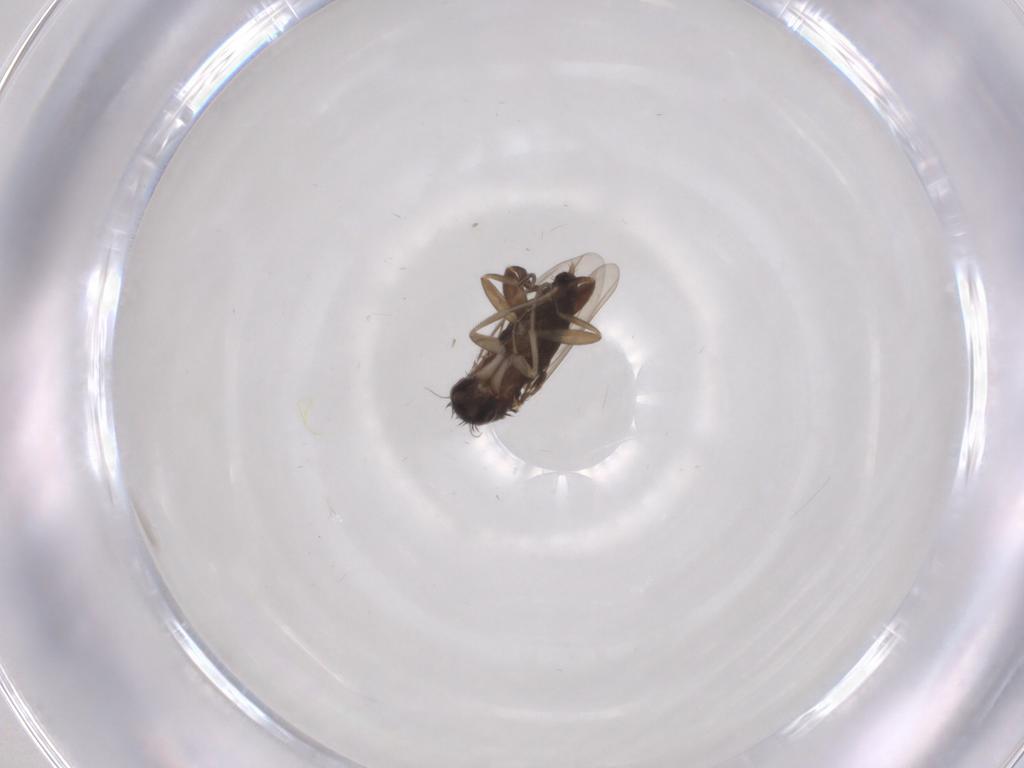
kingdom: Animalia
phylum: Arthropoda
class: Insecta
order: Diptera
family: Phoridae
